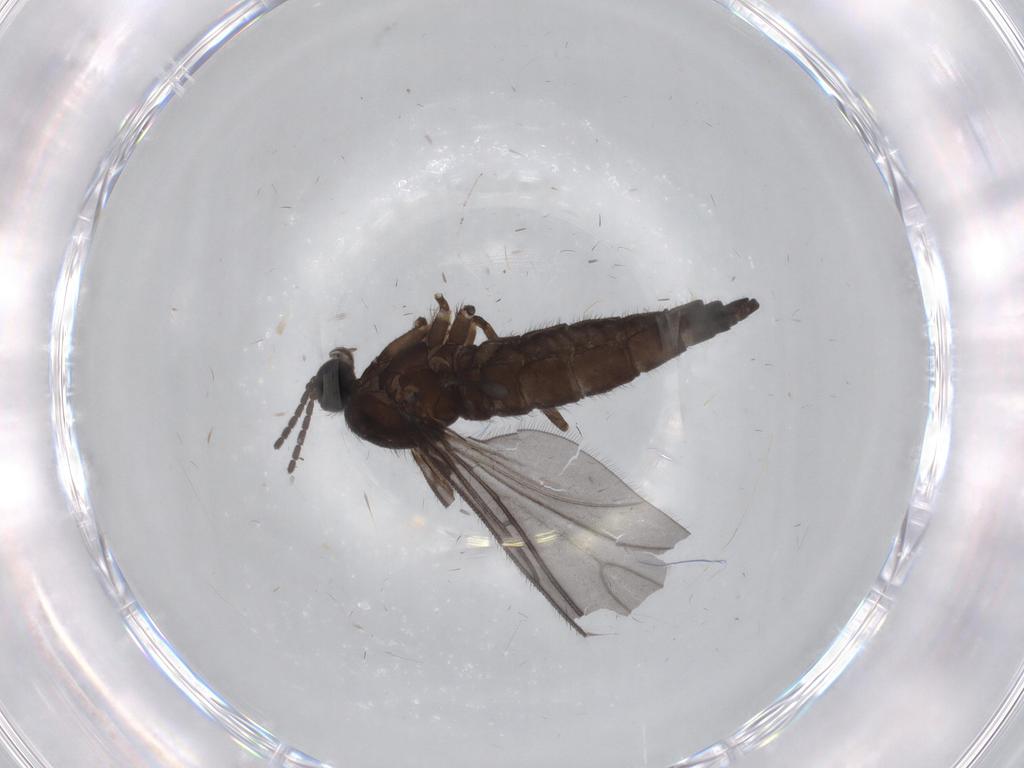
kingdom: Animalia
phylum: Arthropoda
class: Insecta
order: Diptera
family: Sciaridae
